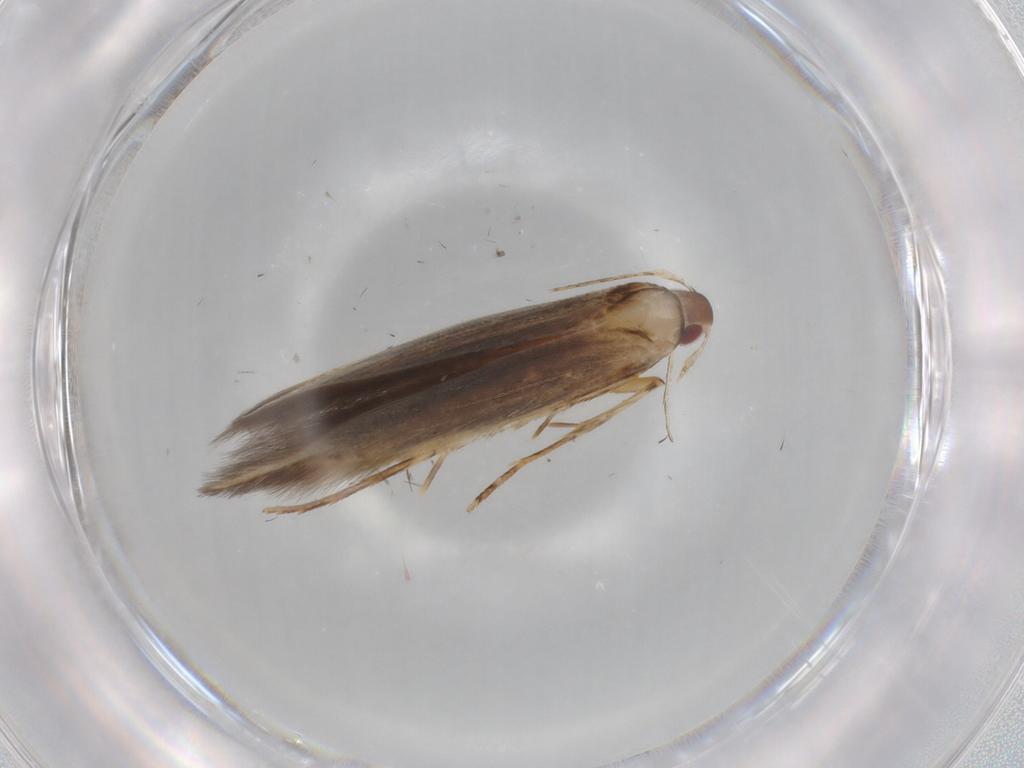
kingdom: Animalia
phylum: Arthropoda
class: Insecta
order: Lepidoptera
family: Cosmopterigidae
